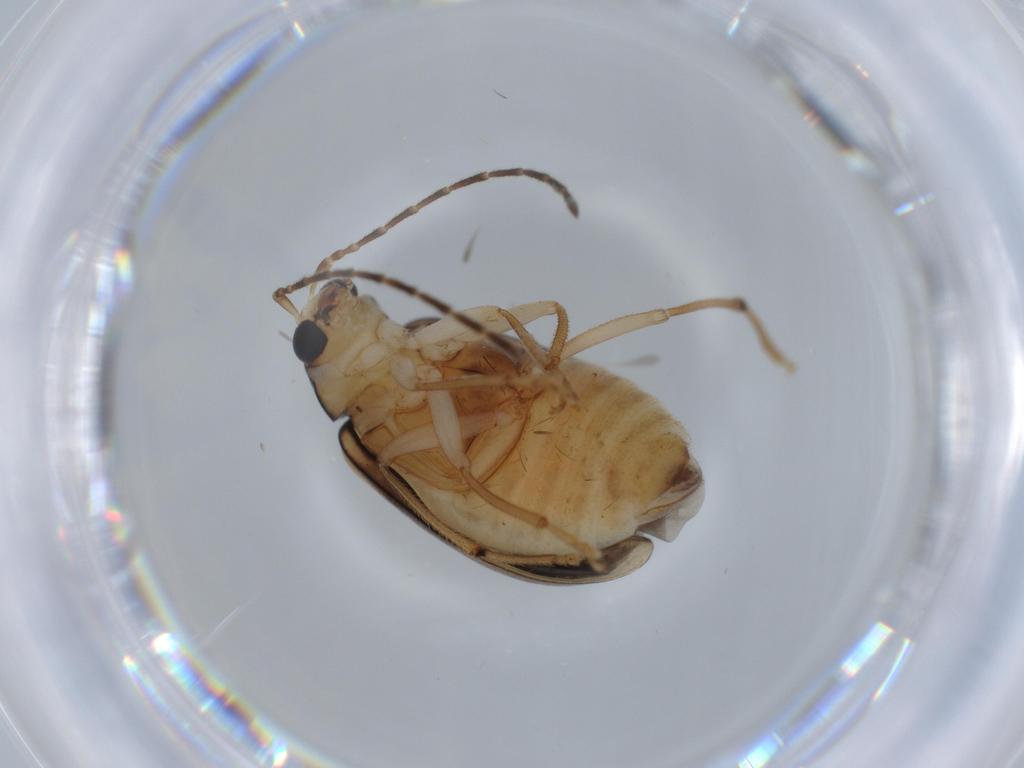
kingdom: Animalia
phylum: Arthropoda
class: Insecta
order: Coleoptera
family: Chrysomelidae
